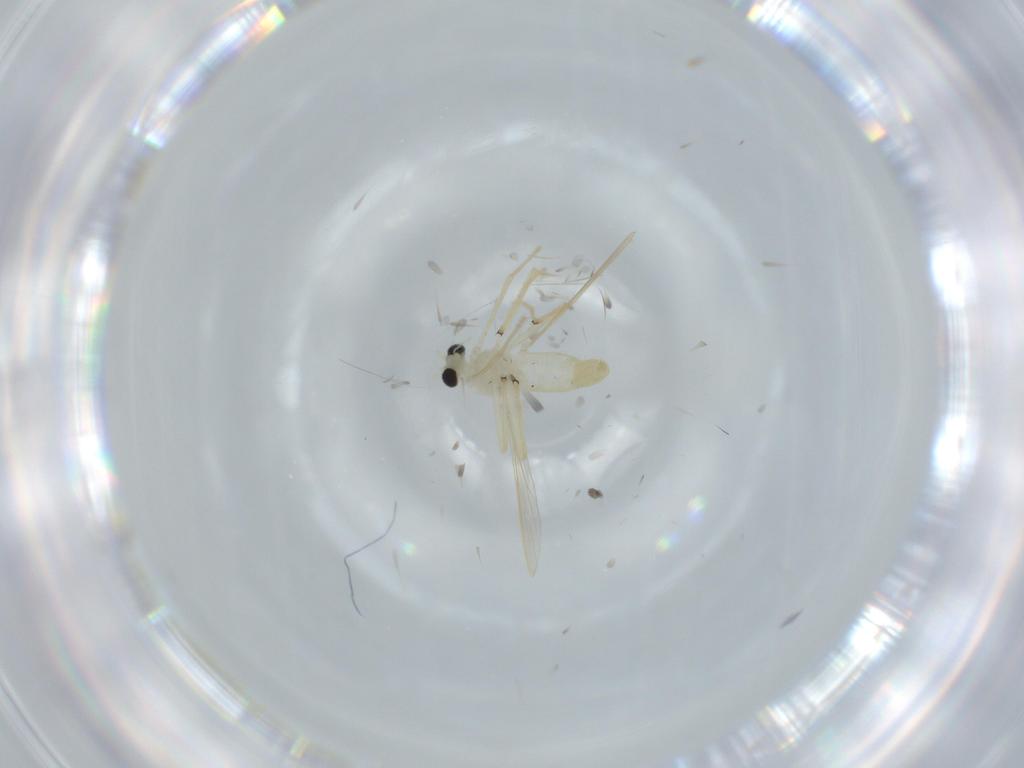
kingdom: Animalia
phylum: Arthropoda
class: Insecta
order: Diptera
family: Chironomidae
